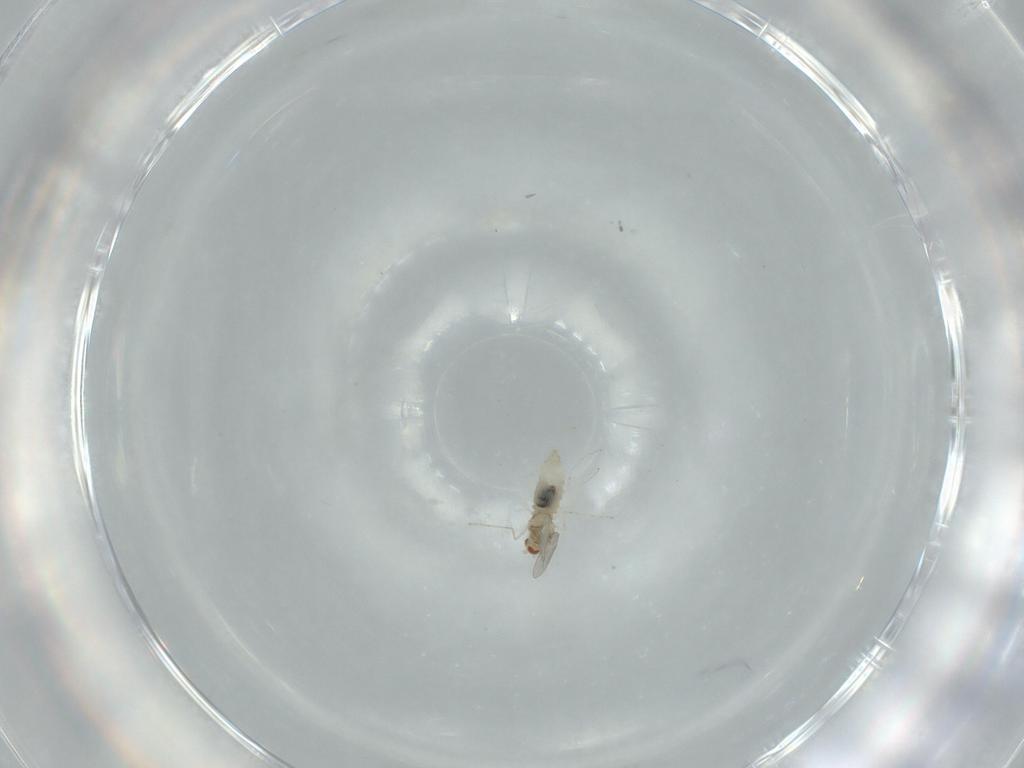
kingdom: Animalia
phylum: Arthropoda
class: Insecta
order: Diptera
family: Cecidomyiidae
